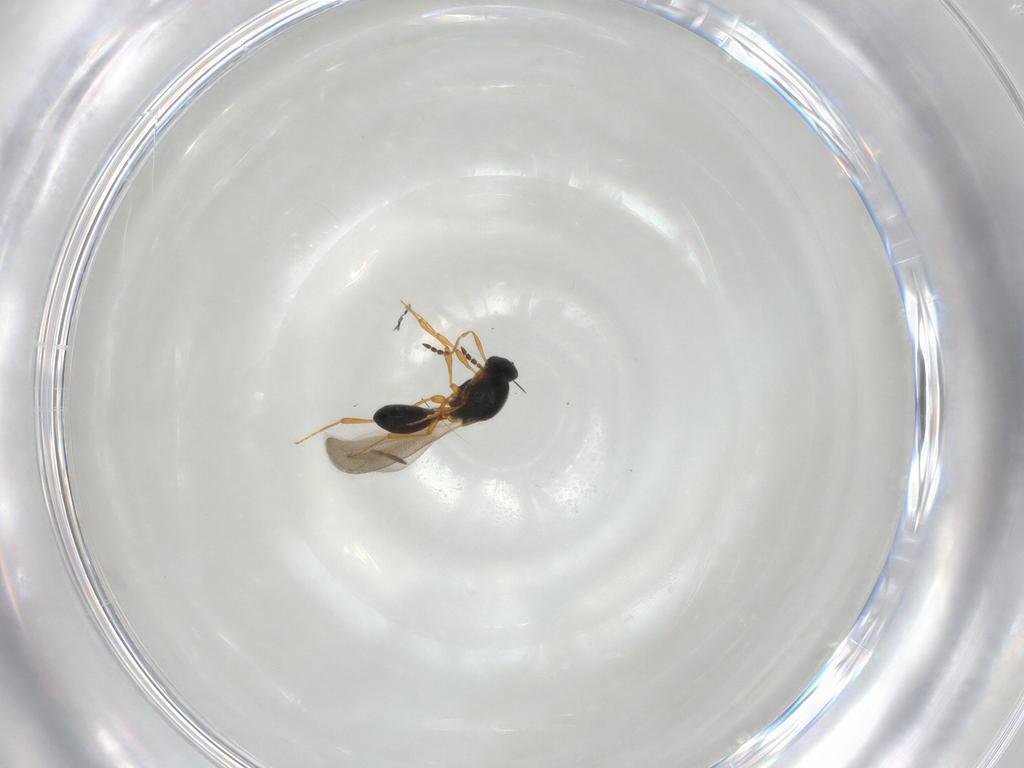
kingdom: Animalia
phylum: Arthropoda
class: Insecta
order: Hymenoptera
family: Platygastridae
